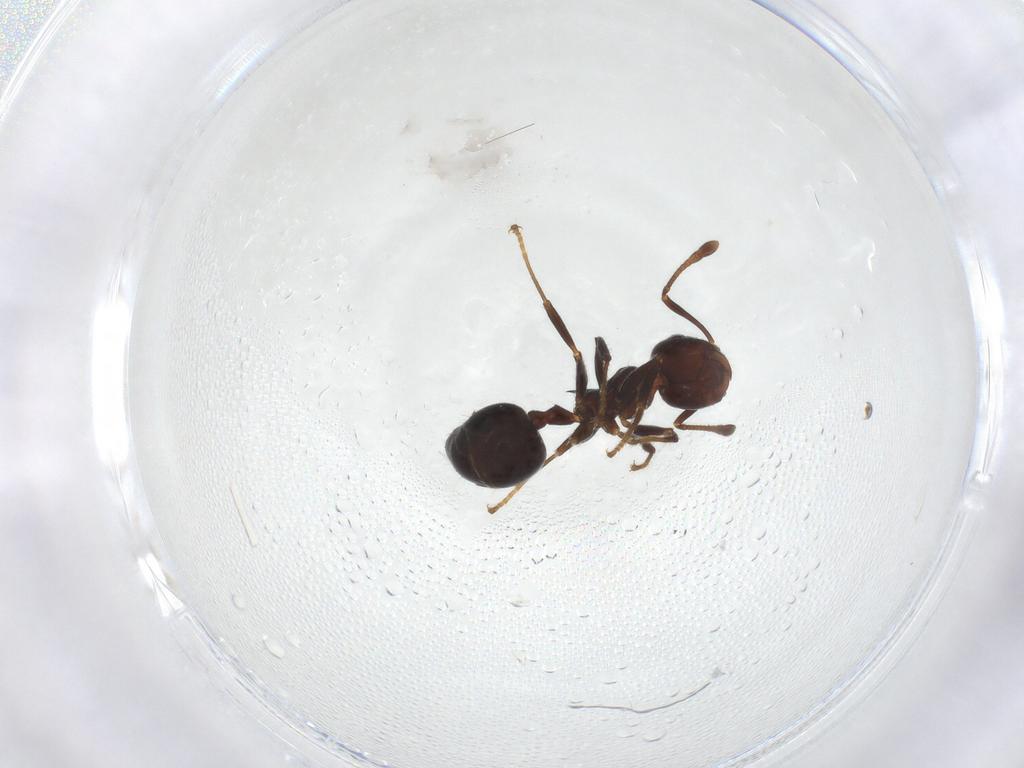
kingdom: Animalia
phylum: Arthropoda
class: Insecta
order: Hymenoptera
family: Formicidae
